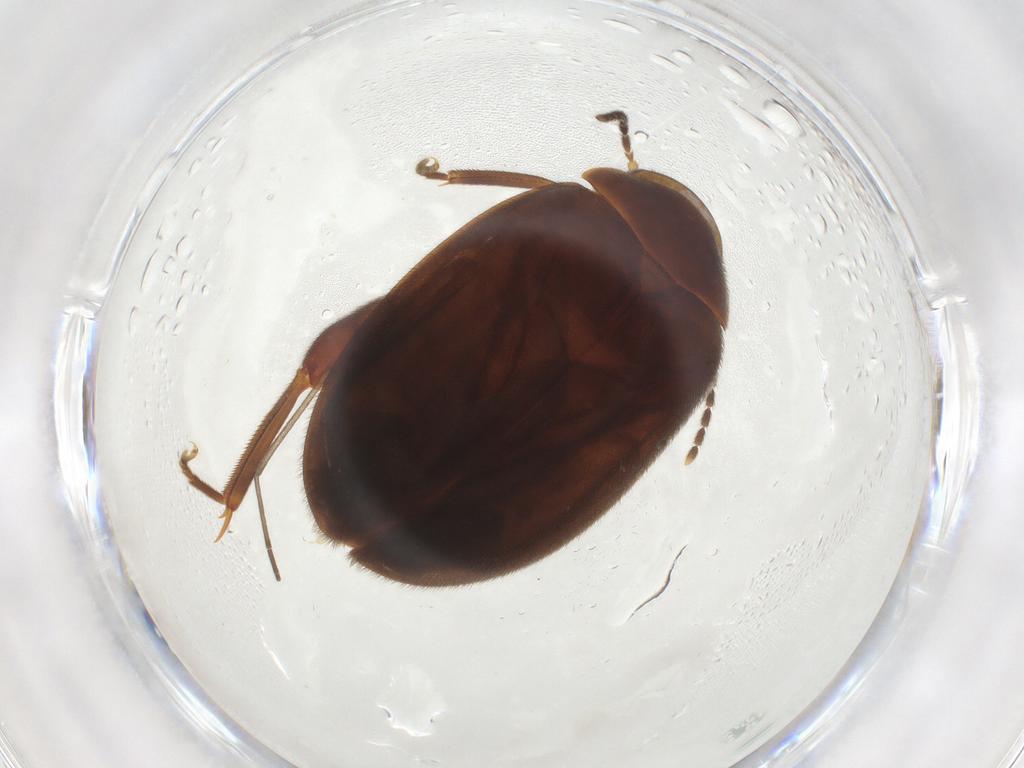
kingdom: Animalia
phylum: Arthropoda
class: Insecta
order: Coleoptera
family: Scirtidae
